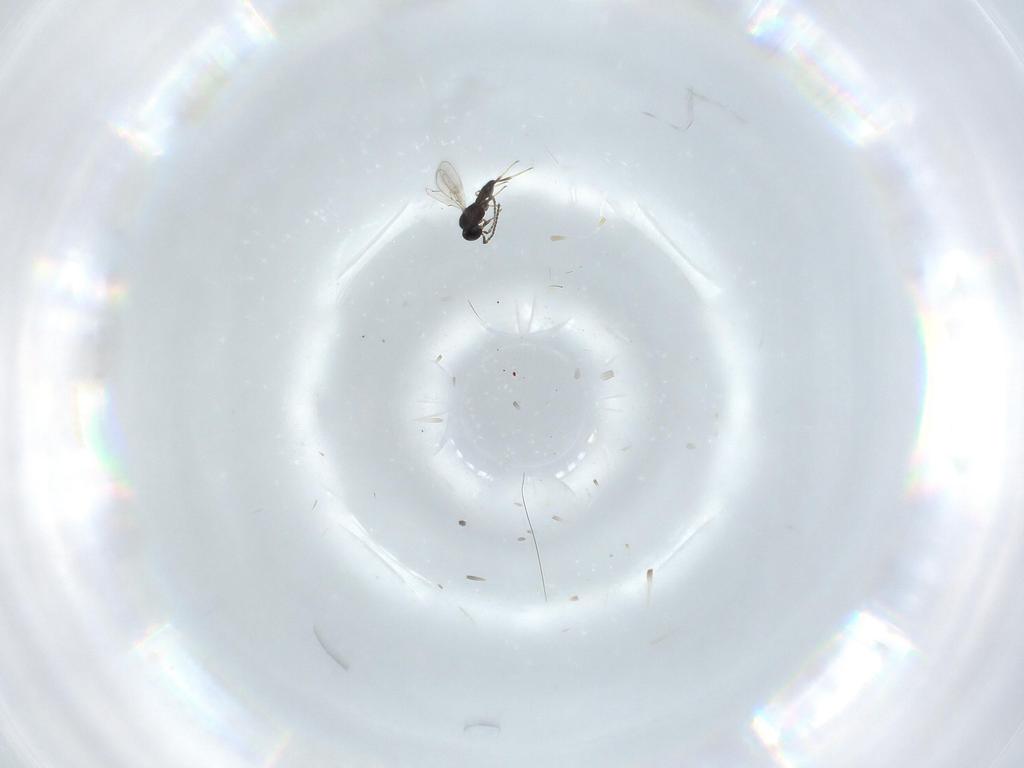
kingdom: Animalia
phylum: Arthropoda
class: Insecta
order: Hymenoptera
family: Scelionidae
